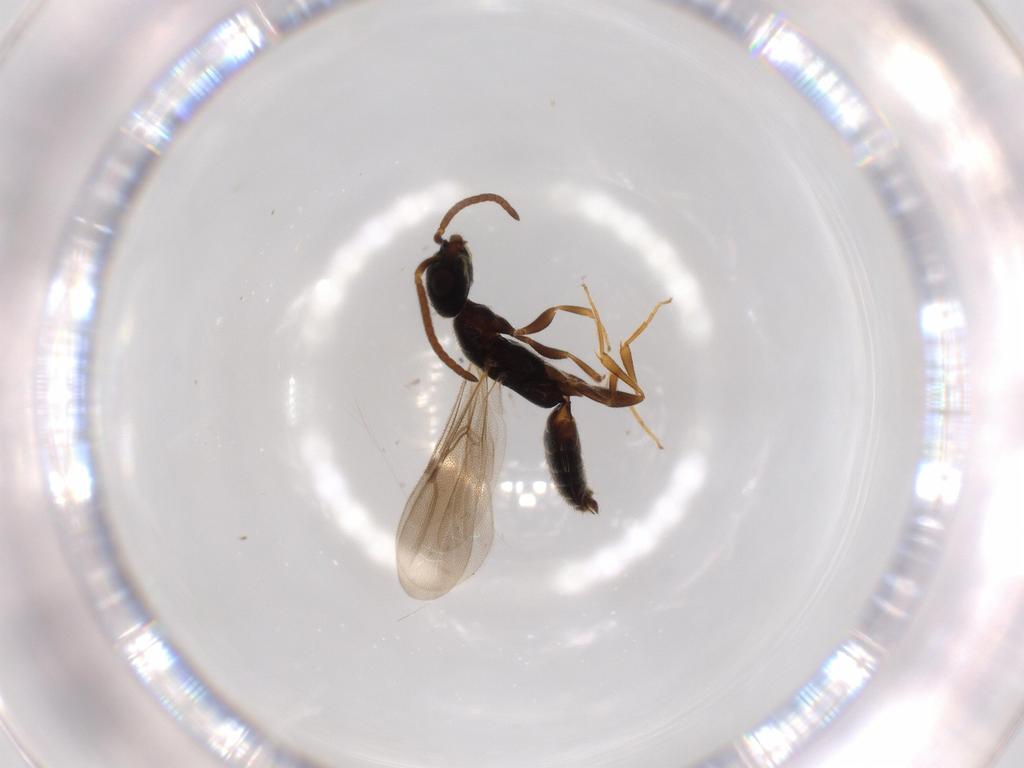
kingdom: Animalia
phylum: Arthropoda
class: Insecta
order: Hymenoptera
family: Bethylidae
